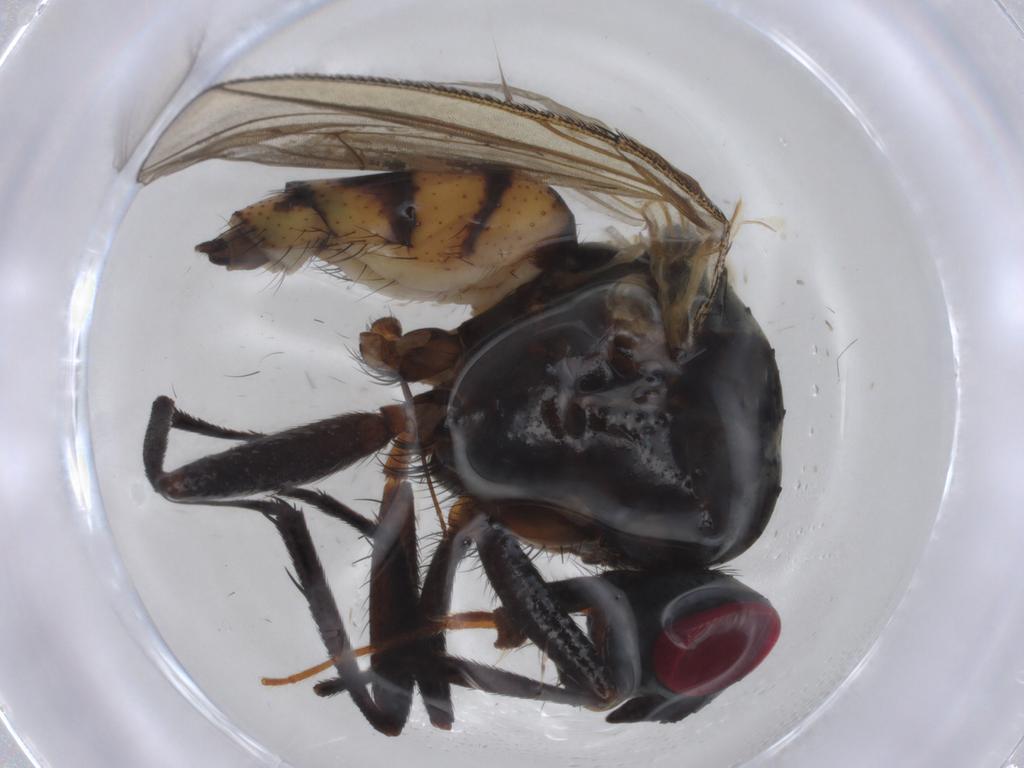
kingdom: Animalia
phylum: Arthropoda
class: Insecta
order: Diptera
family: Anthomyiidae
